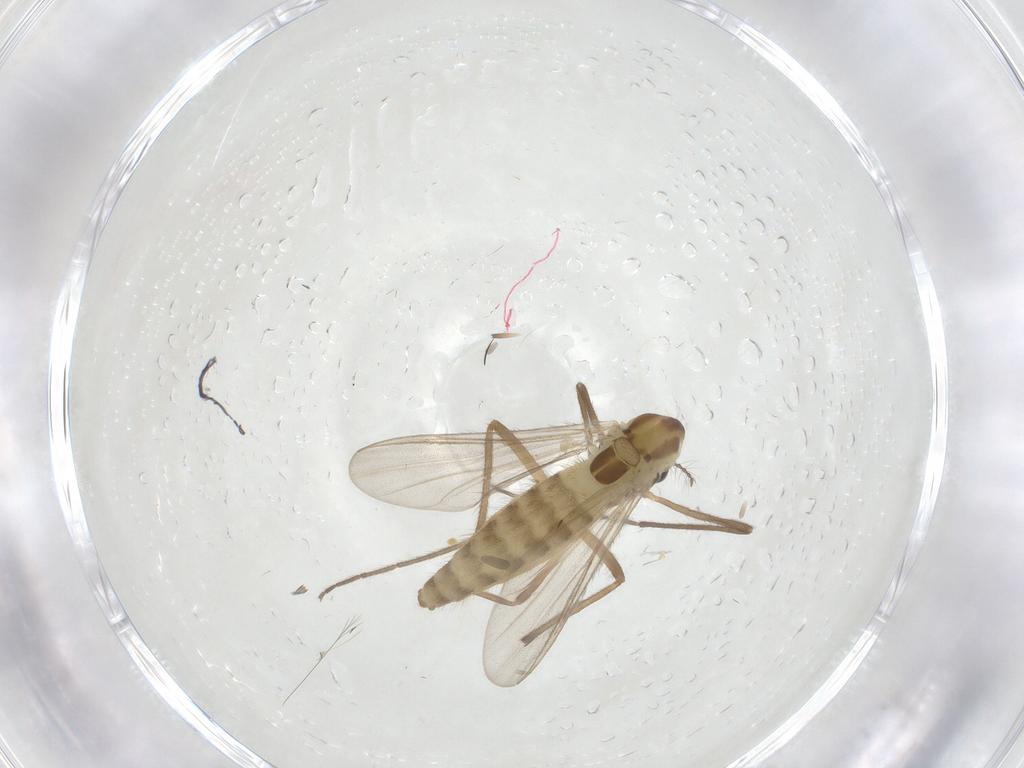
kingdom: Animalia
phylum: Arthropoda
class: Insecta
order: Diptera
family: Chironomidae
